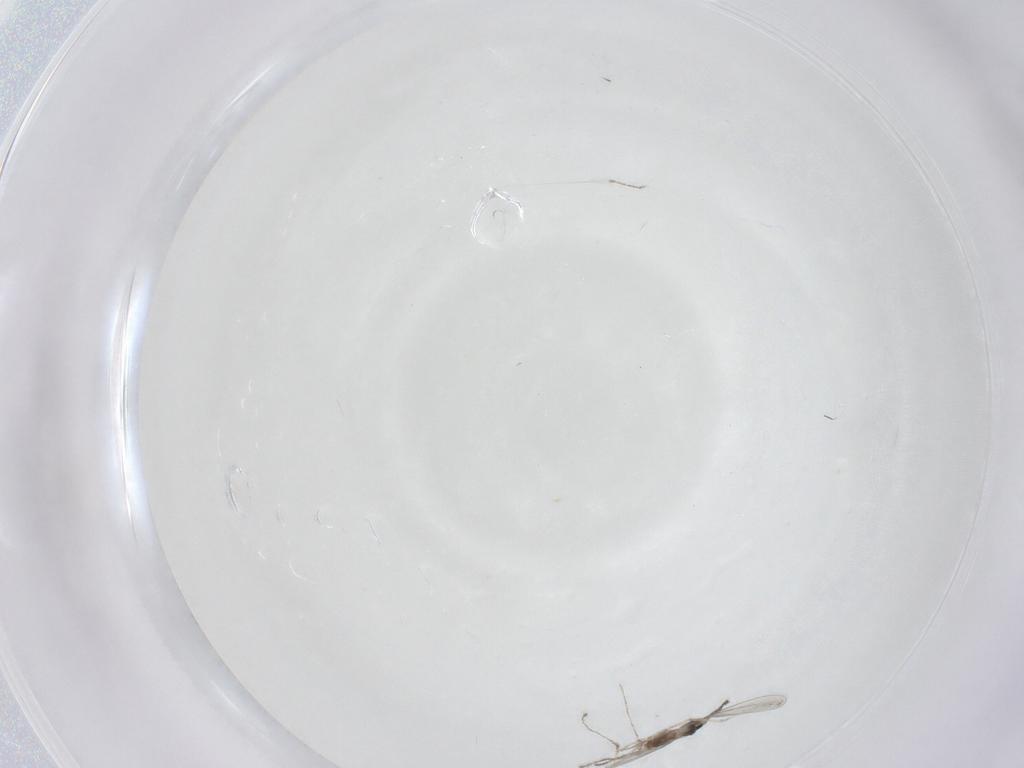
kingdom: Animalia
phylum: Arthropoda
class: Insecta
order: Diptera
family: Cecidomyiidae
